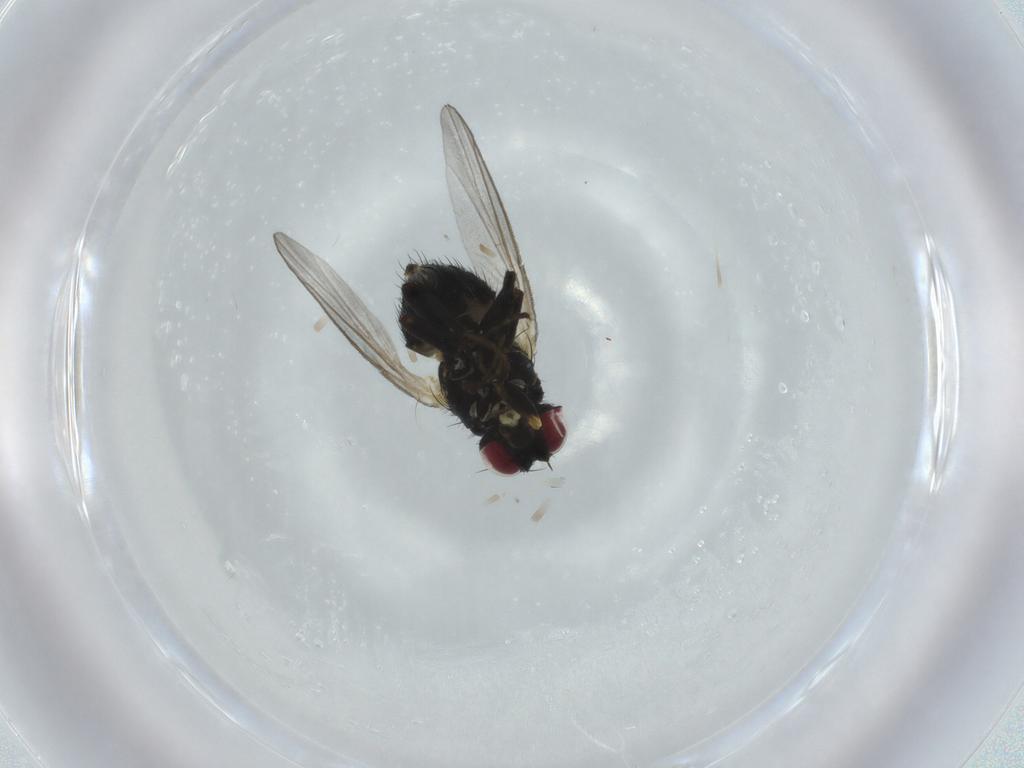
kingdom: Animalia
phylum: Arthropoda
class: Insecta
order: Diptera
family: Agromyzidae
